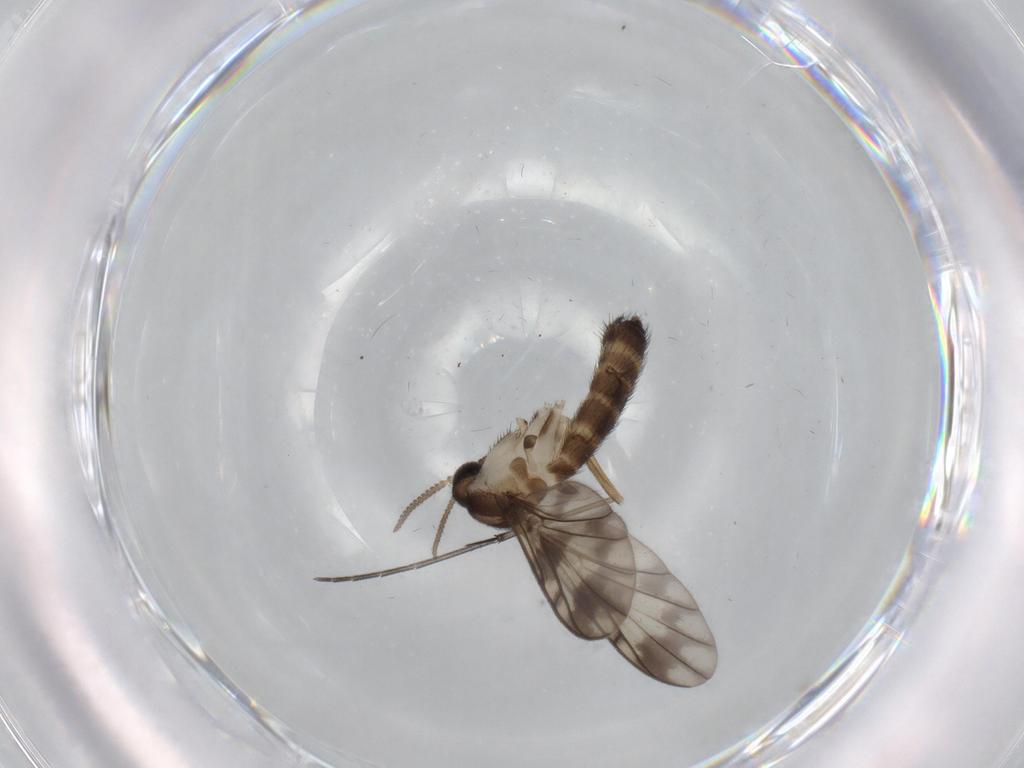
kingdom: Animalia
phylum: Arthropoda
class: Insecta
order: Diptera
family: Keroplatidae
